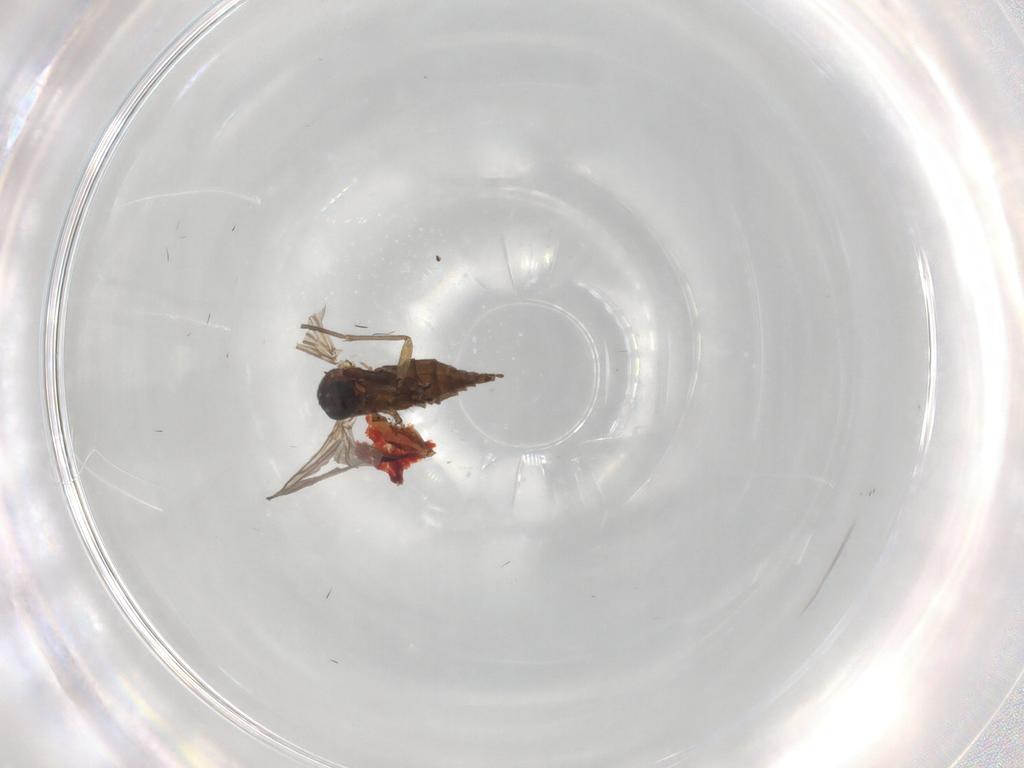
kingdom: Animalia
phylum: Arthropoda
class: Insecta
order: Diptera
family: Pipunculidae
